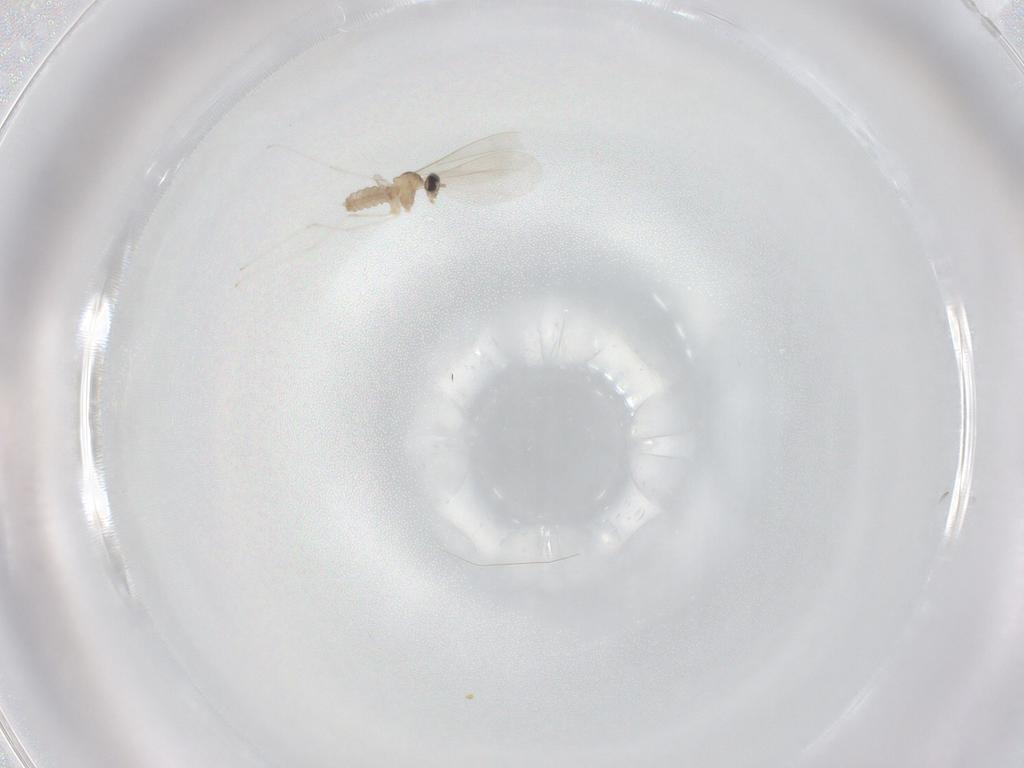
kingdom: Animalia
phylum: Arthropoda
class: Insecta
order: Diptera
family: Cecidomyiidae
